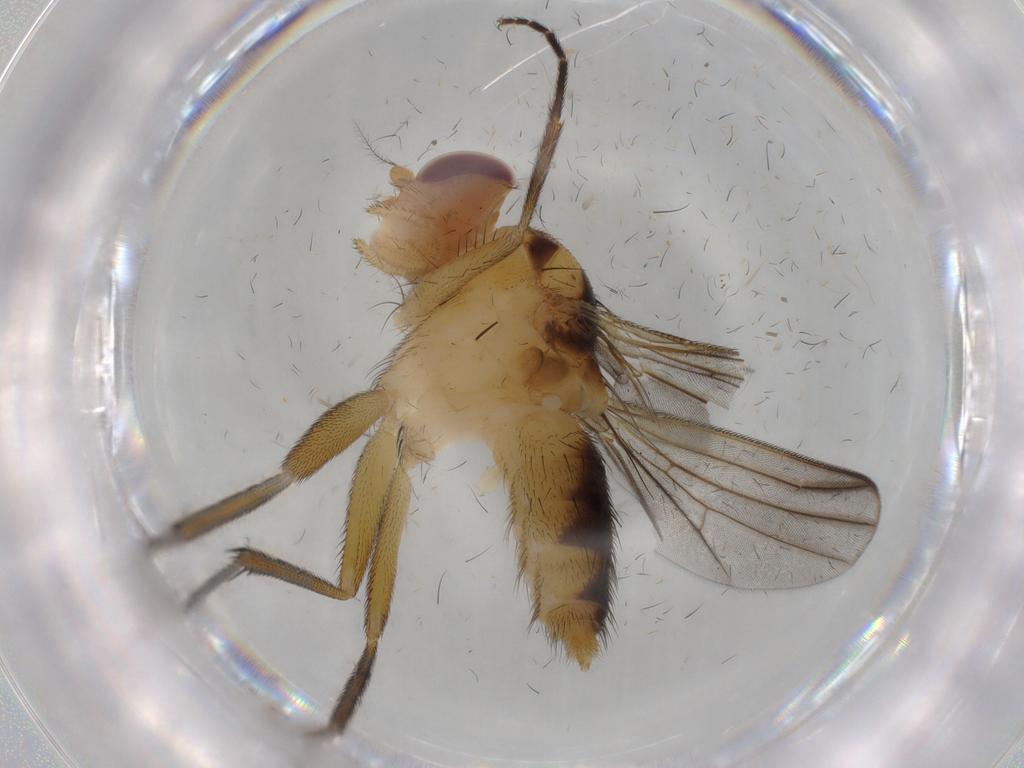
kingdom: Animalia
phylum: Arthropoda
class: Insecta
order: Diptera
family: Clusiidae
